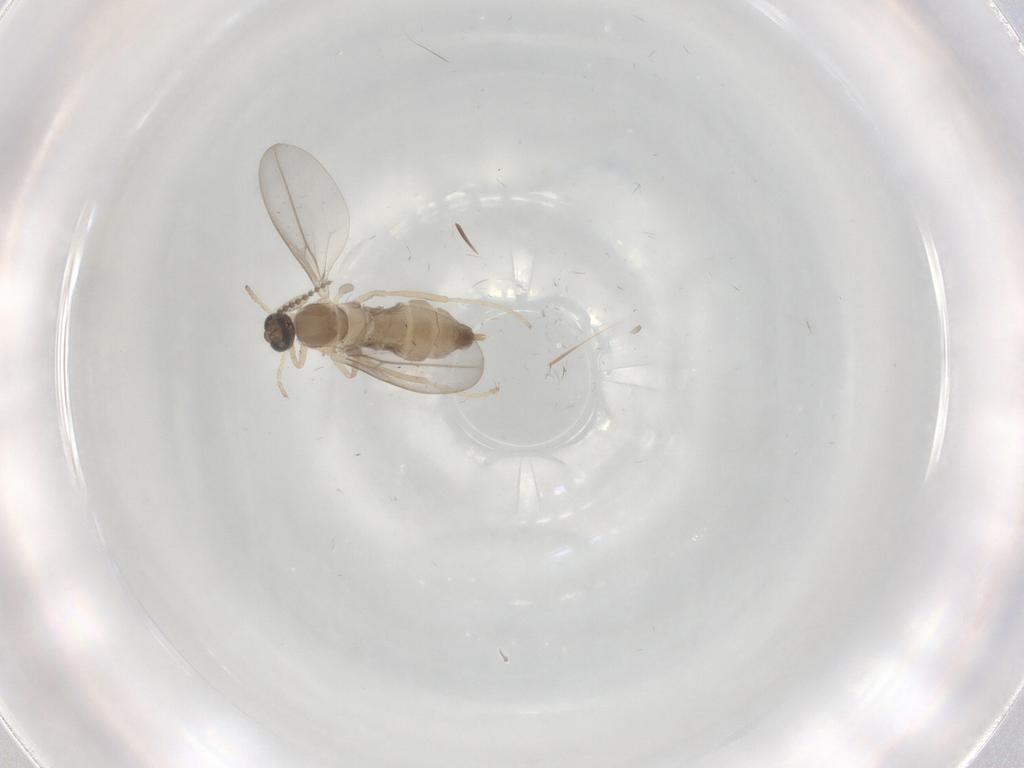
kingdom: Animalia
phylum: Arthropoda
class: Insecta
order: Diptera
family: Cecidomyiidae
